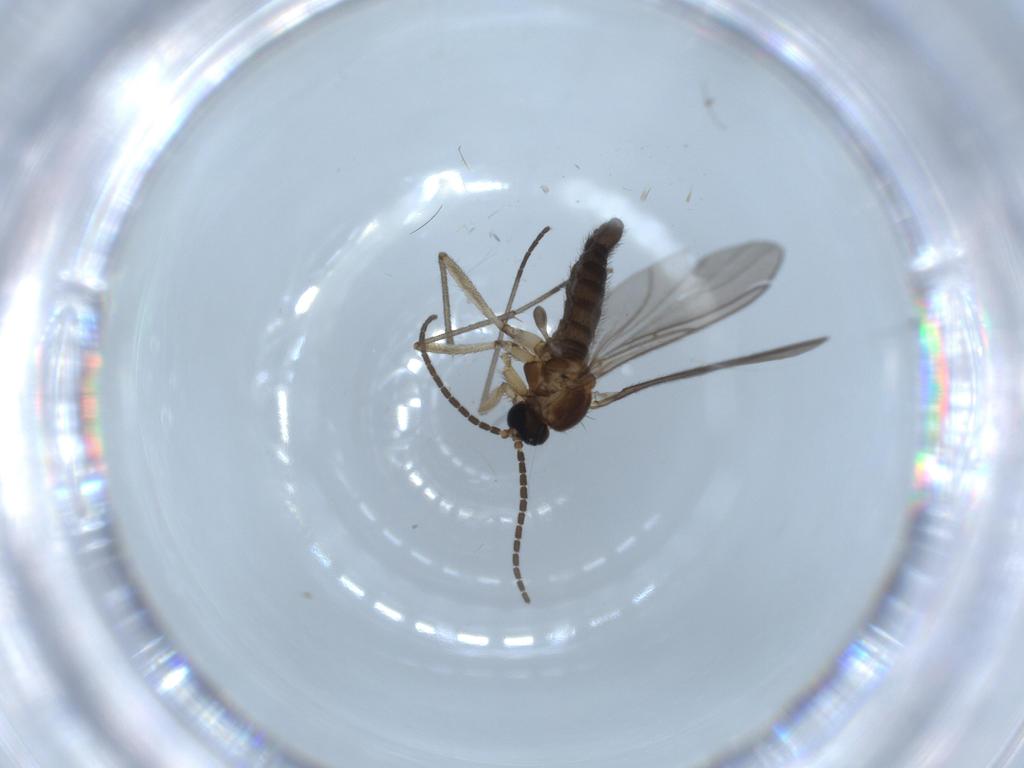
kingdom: Animalia
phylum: Arthropoda
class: Insecta
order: Diptera
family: Sciaridae
